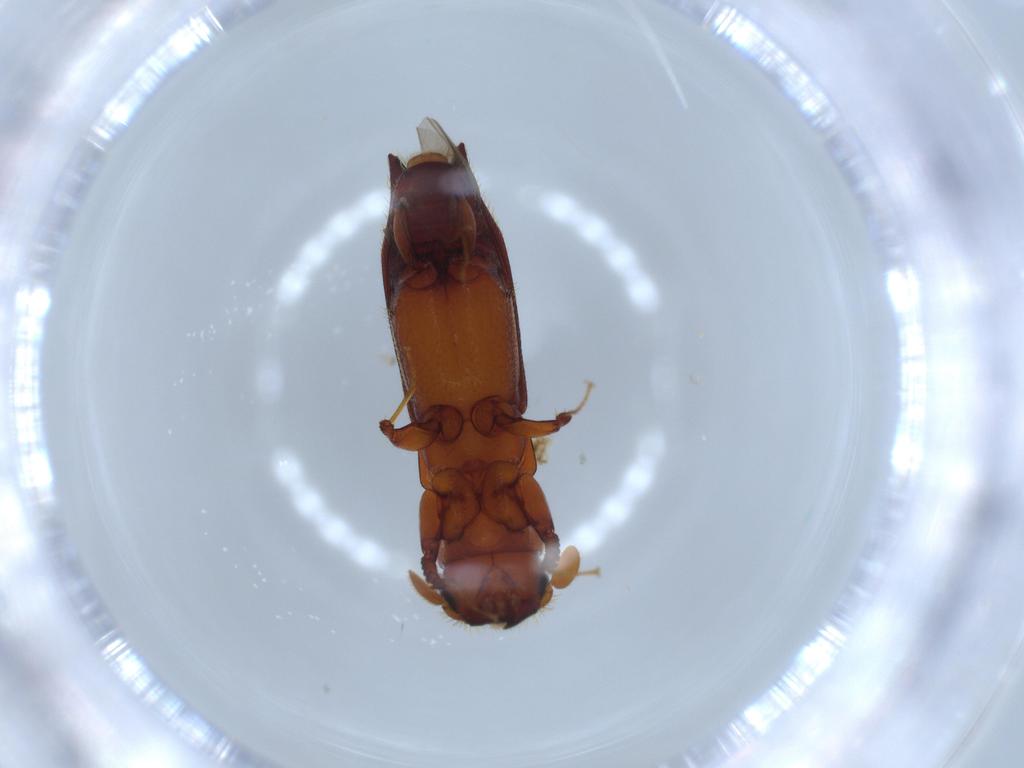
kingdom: Animalia
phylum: Arthropoda
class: Insecta
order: Coleoptera
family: Curculionidae
